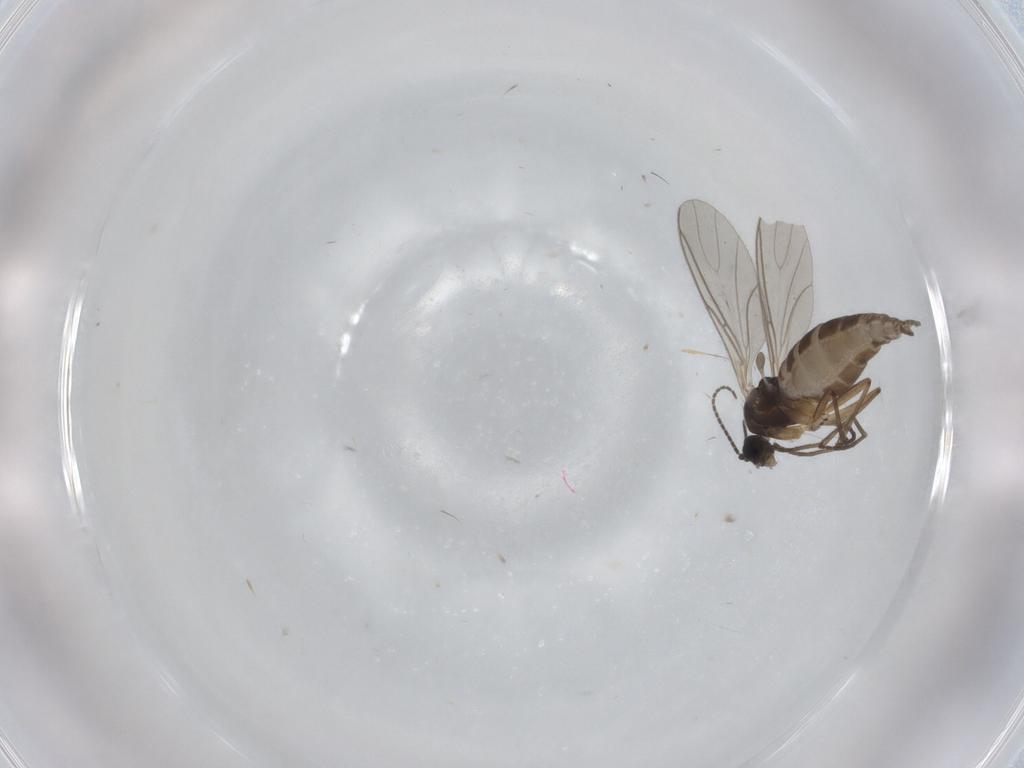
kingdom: Animalia
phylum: Arthropoda
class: Insecta
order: Diptera
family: Sciaridae
